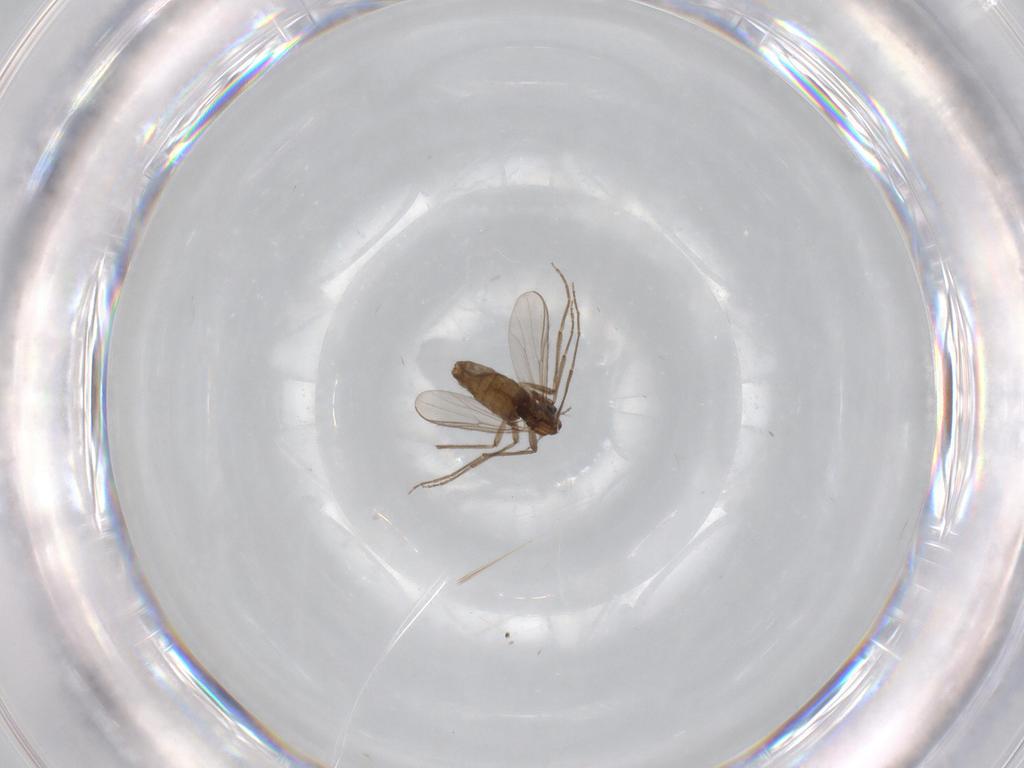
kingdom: Animalia
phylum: Arthropoda
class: Insecta
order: Diptera
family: Chironomidae
